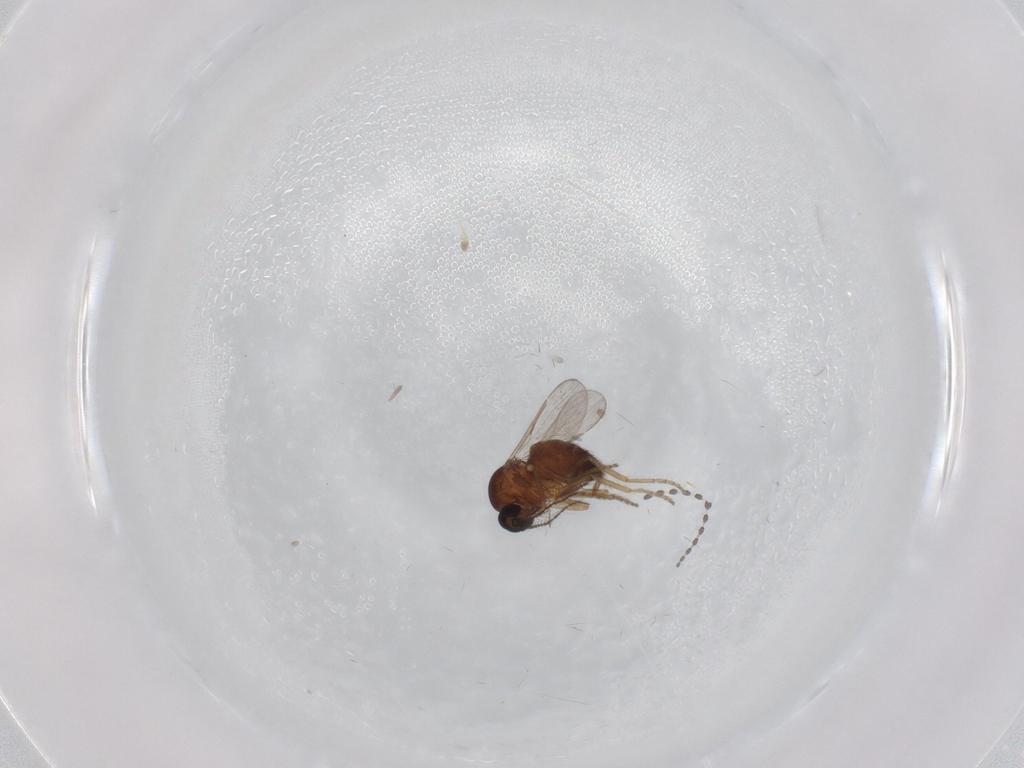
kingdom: Animalia
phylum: Arthropoda
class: Insecta
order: Diptera
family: Ceratopogonidae
